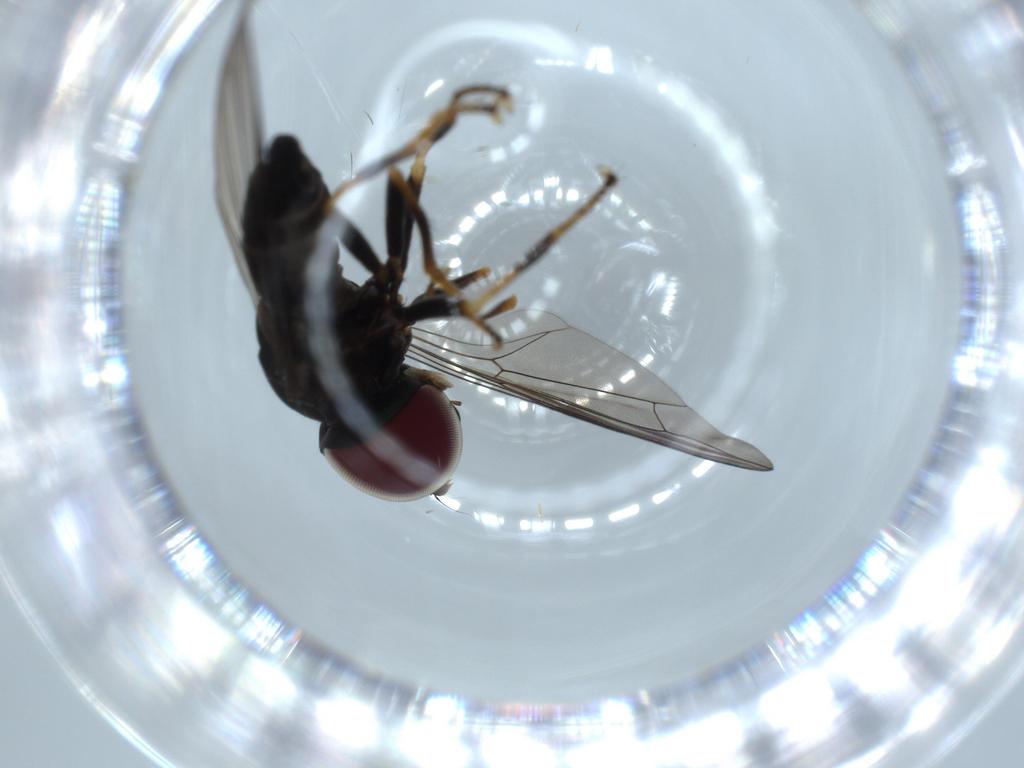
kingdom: Animalia
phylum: Arthropoda
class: Insecta
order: Diptera
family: Pipunculidae
